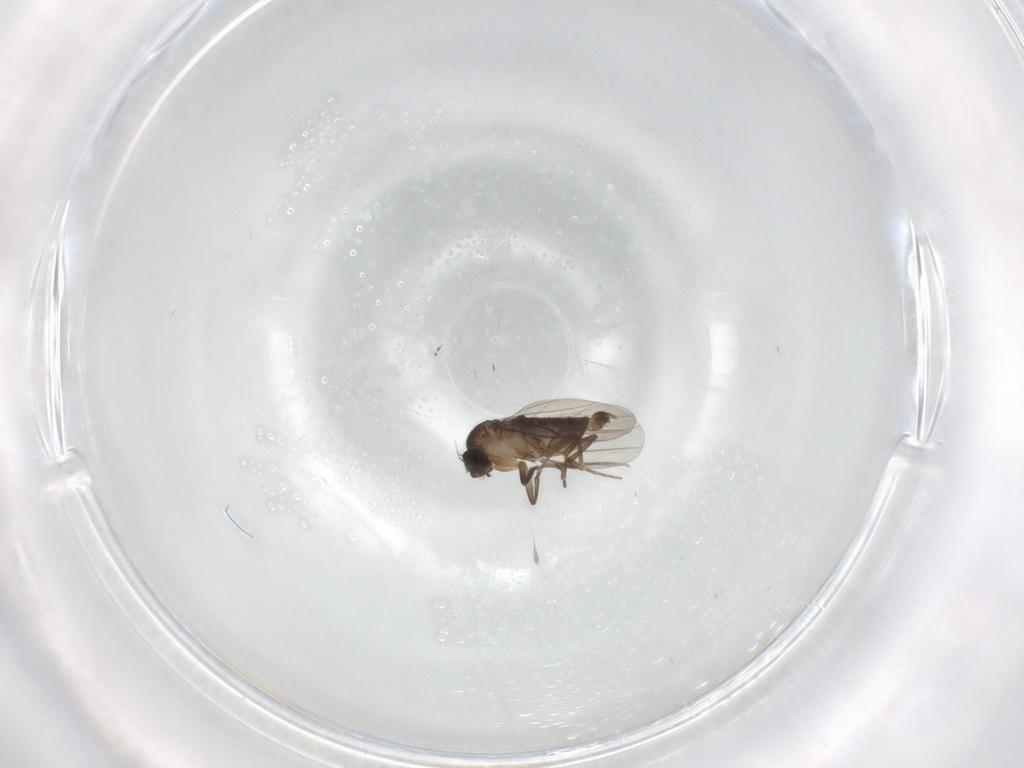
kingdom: Animalia
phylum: Arthropoda
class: Insecta
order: Diptera
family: Phoridae
